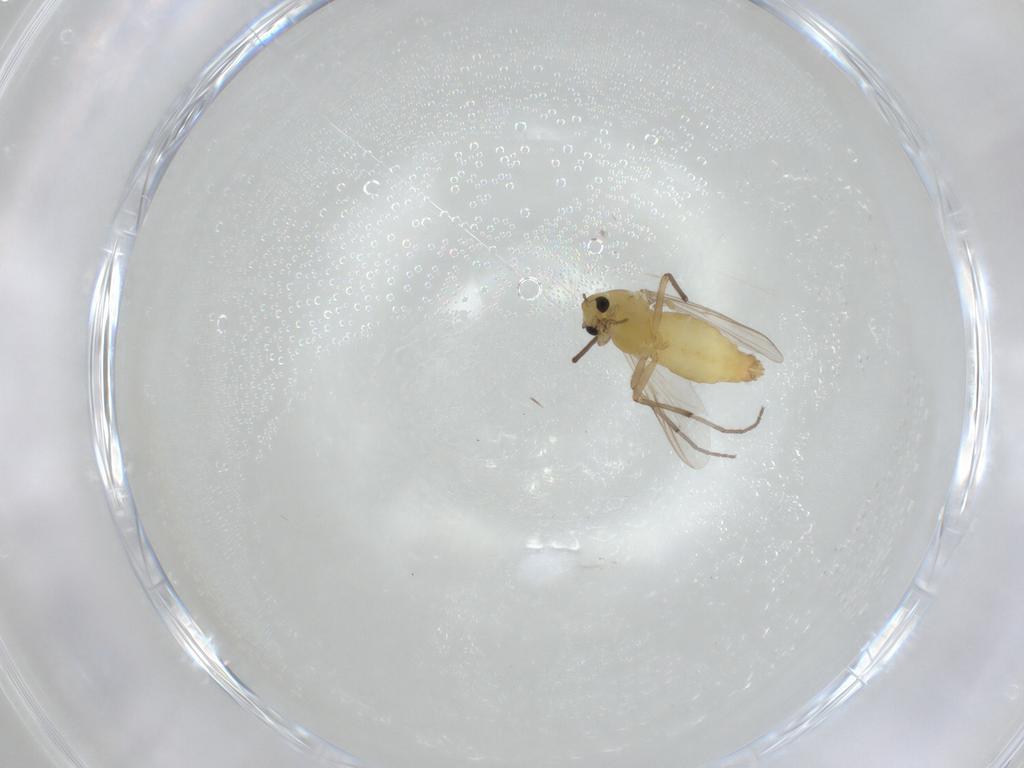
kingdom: Animalia
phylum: Arthropoda
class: Insecta
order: Diptera
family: Chironomidae
